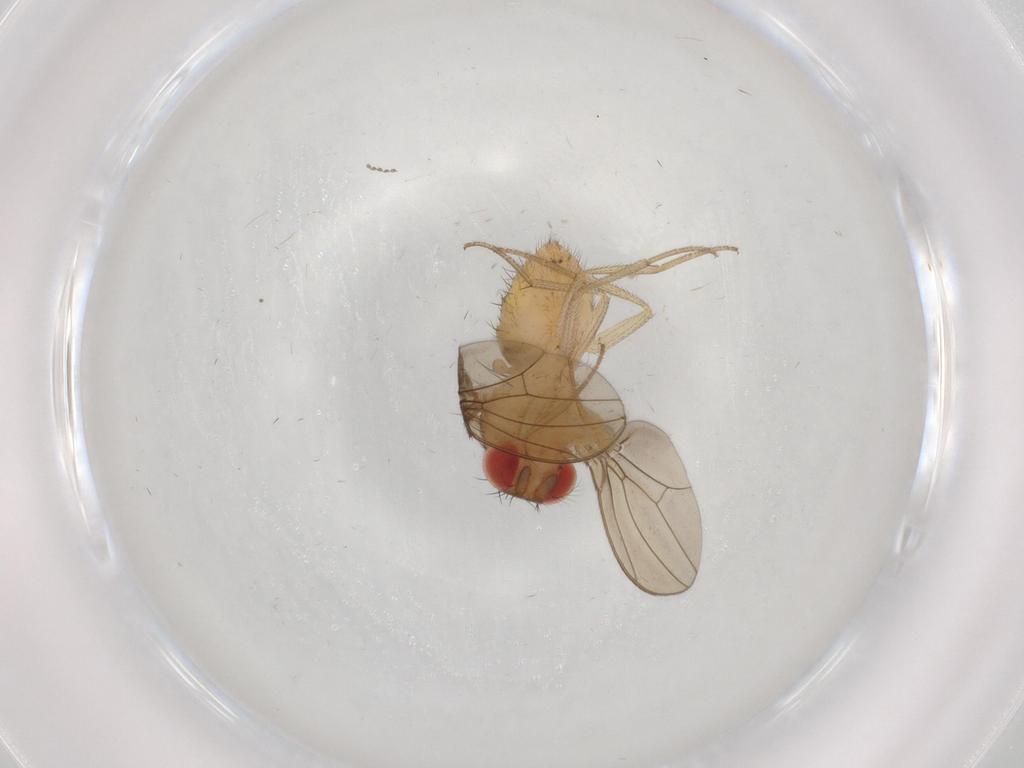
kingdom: Animalia
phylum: Arthropoda
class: Insecta
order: Diptera
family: Drosophilidae
